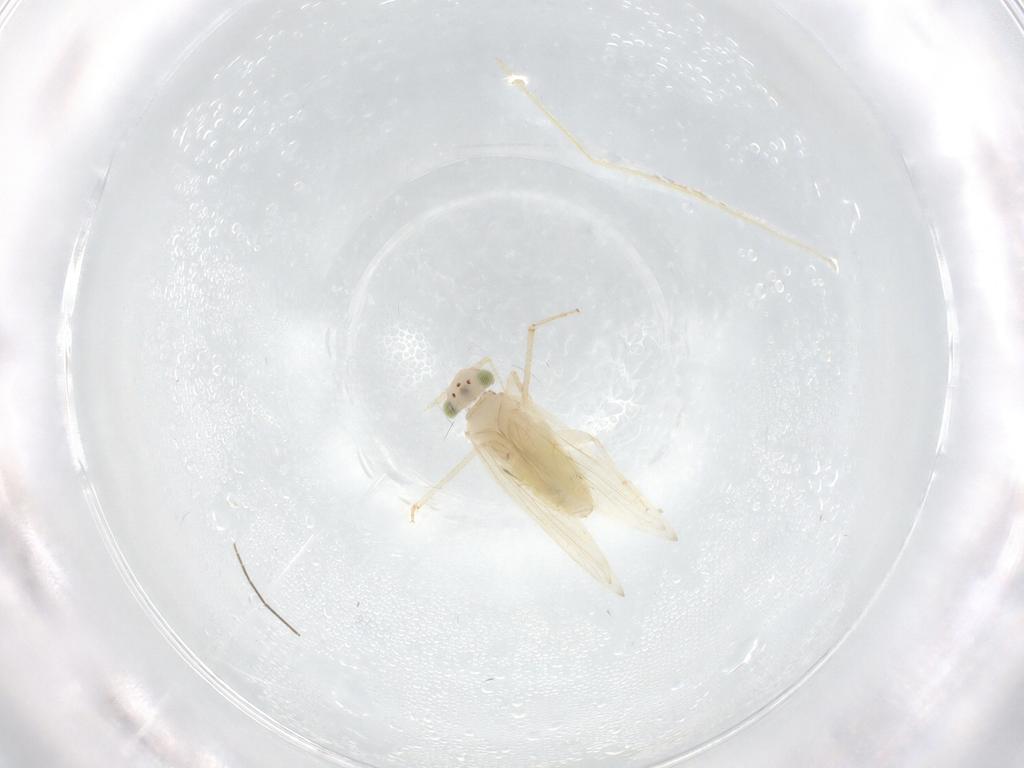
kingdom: Animalia
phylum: Arthropoda
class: Insecta
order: Psocodea
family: Lepidopsocidae
